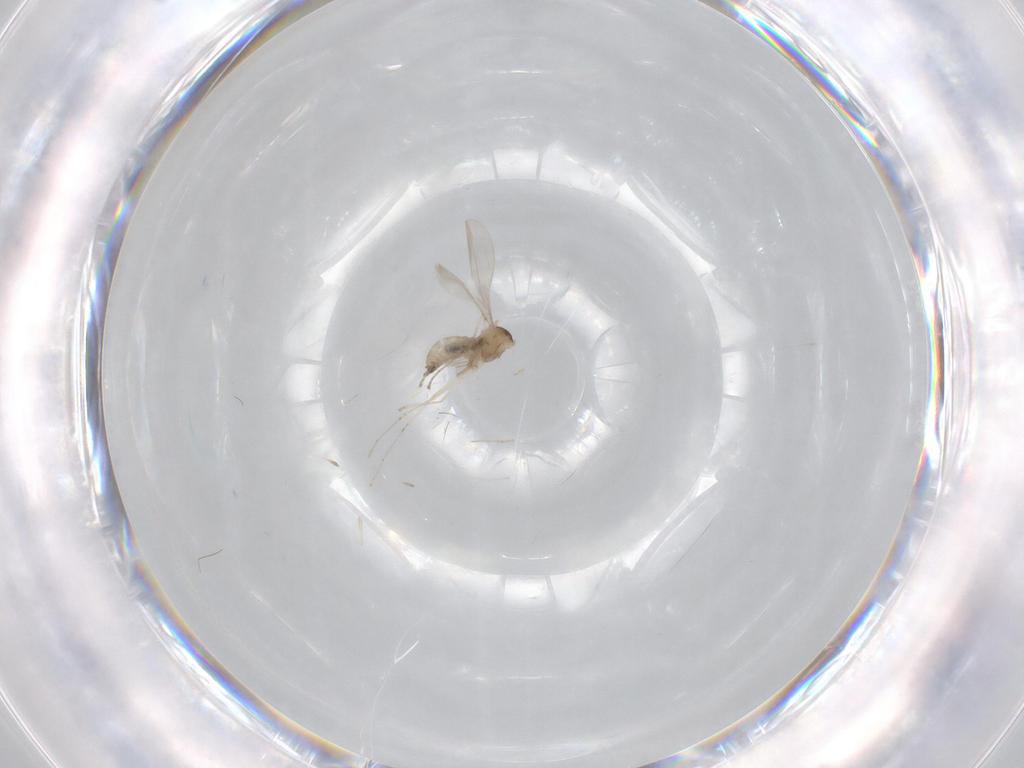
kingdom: Animalia
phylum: Arthropoda
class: Insecta
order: Diptera
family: Cecidomyiidae
